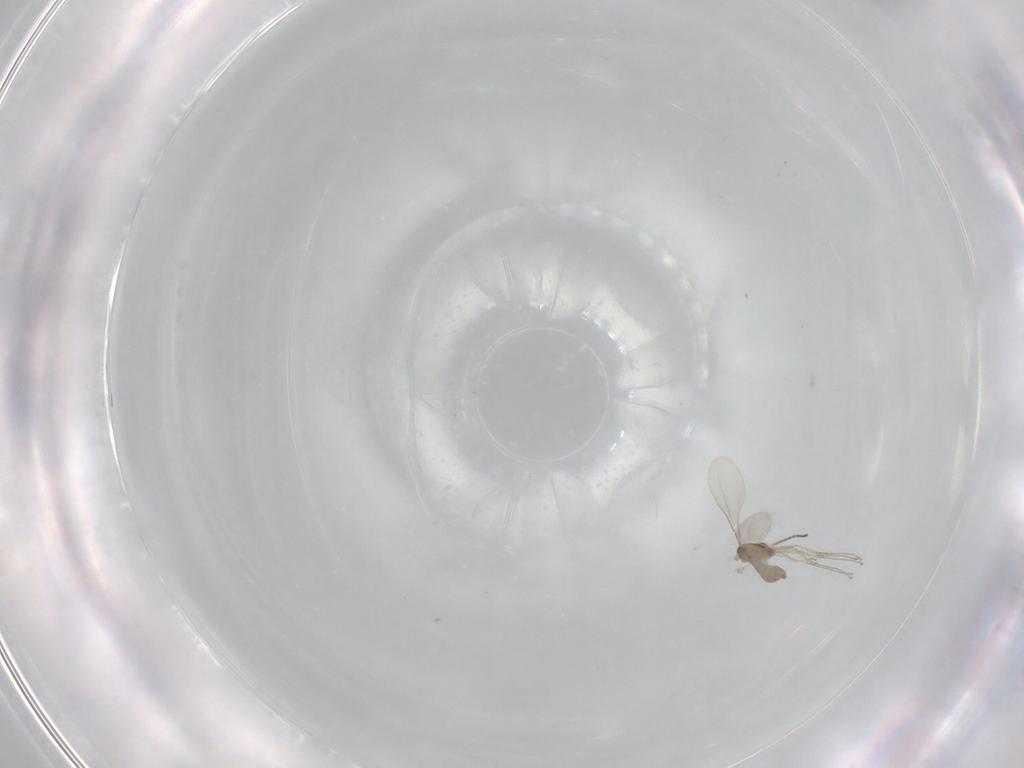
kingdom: Animalia
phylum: Arthropoda
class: Insecta
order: Diptera
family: Cecidomyiidae
